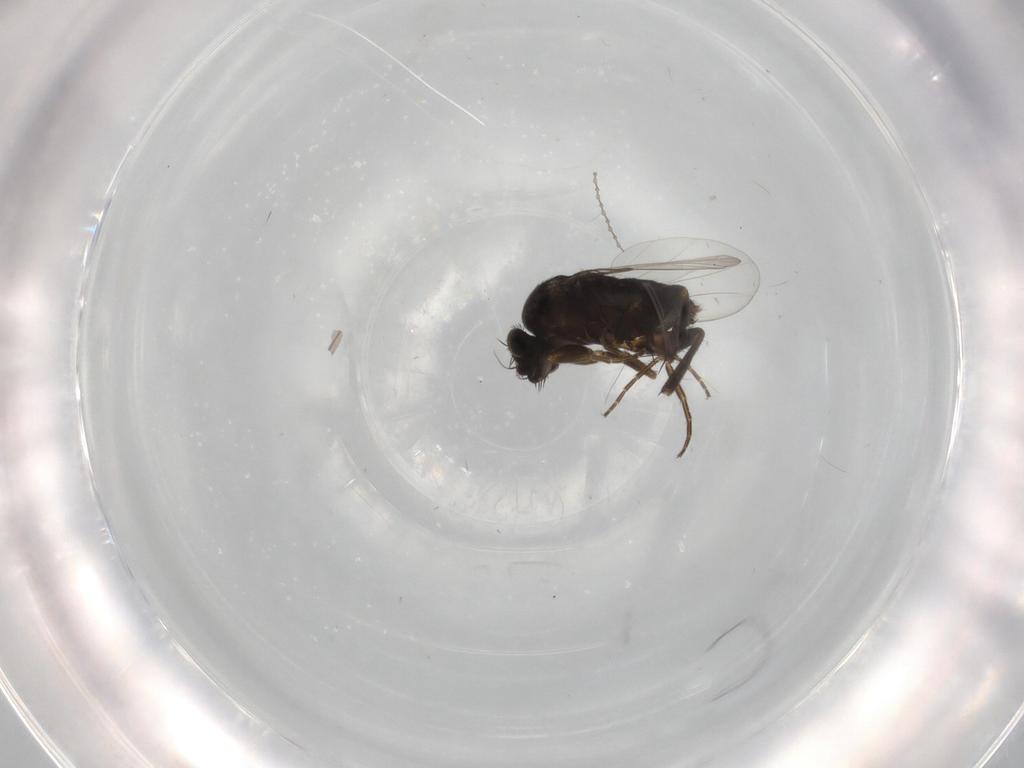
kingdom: Animalia
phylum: Arthropoda
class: Insecta
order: Diptera
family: Phoridae
